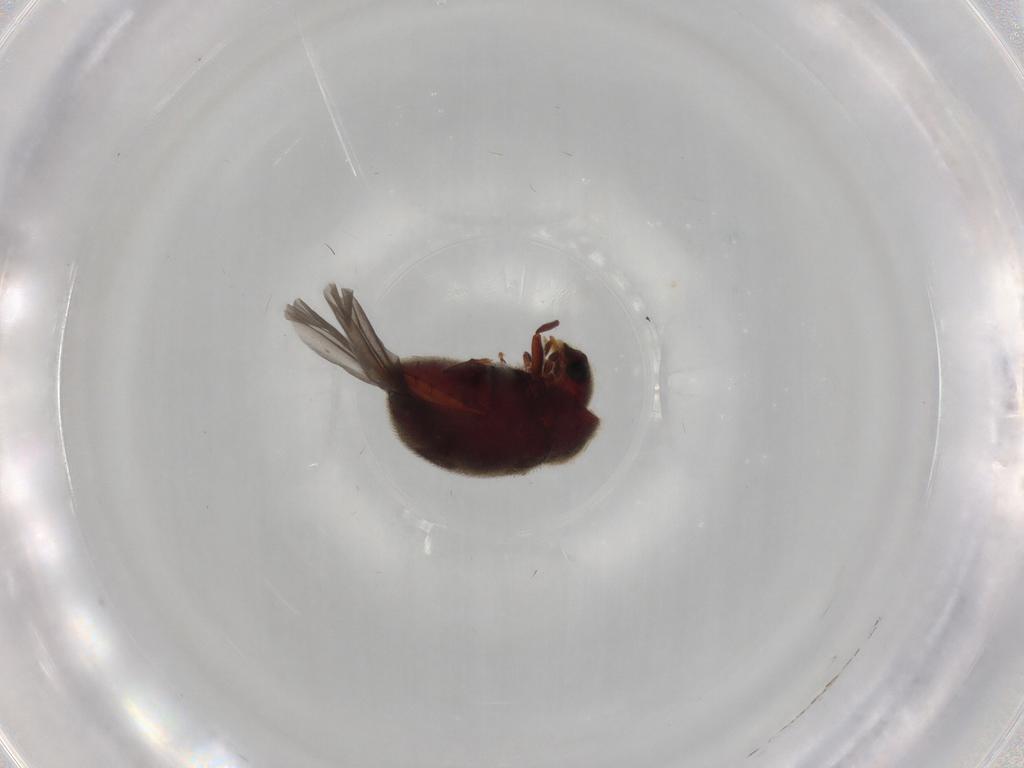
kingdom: Animalia
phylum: Arthropoda
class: Insecta
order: Coleoptera
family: Ptinidae
